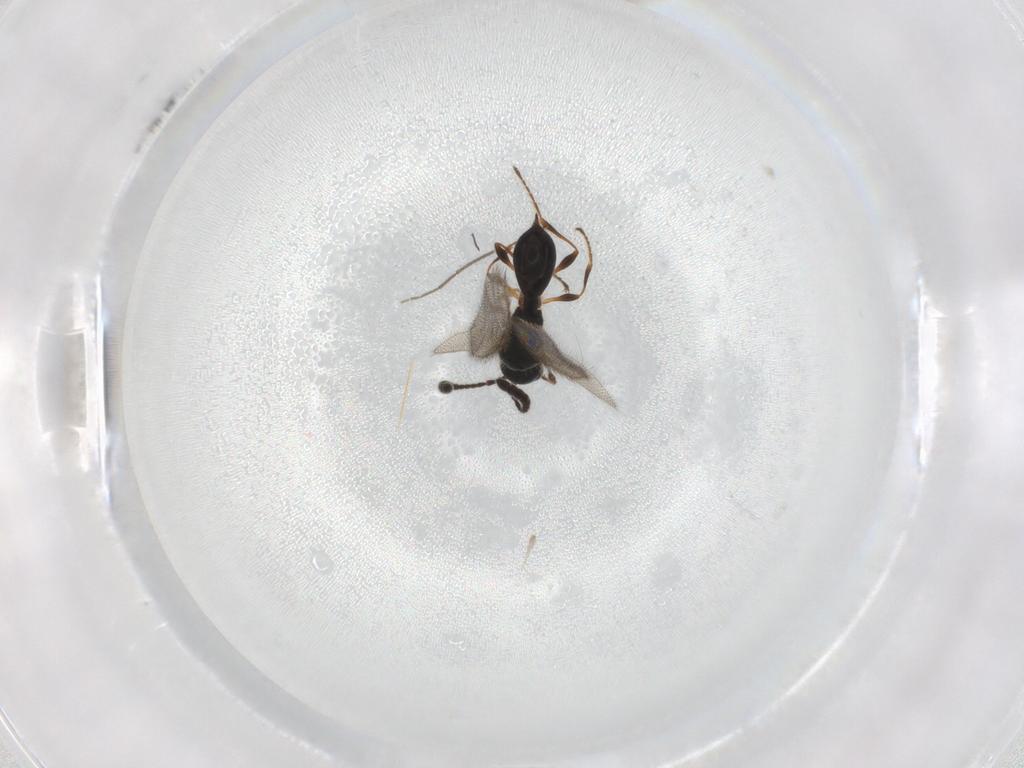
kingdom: Animalia
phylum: Arthropoda
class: Insecta
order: Hymenoptera
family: Diapriidae
